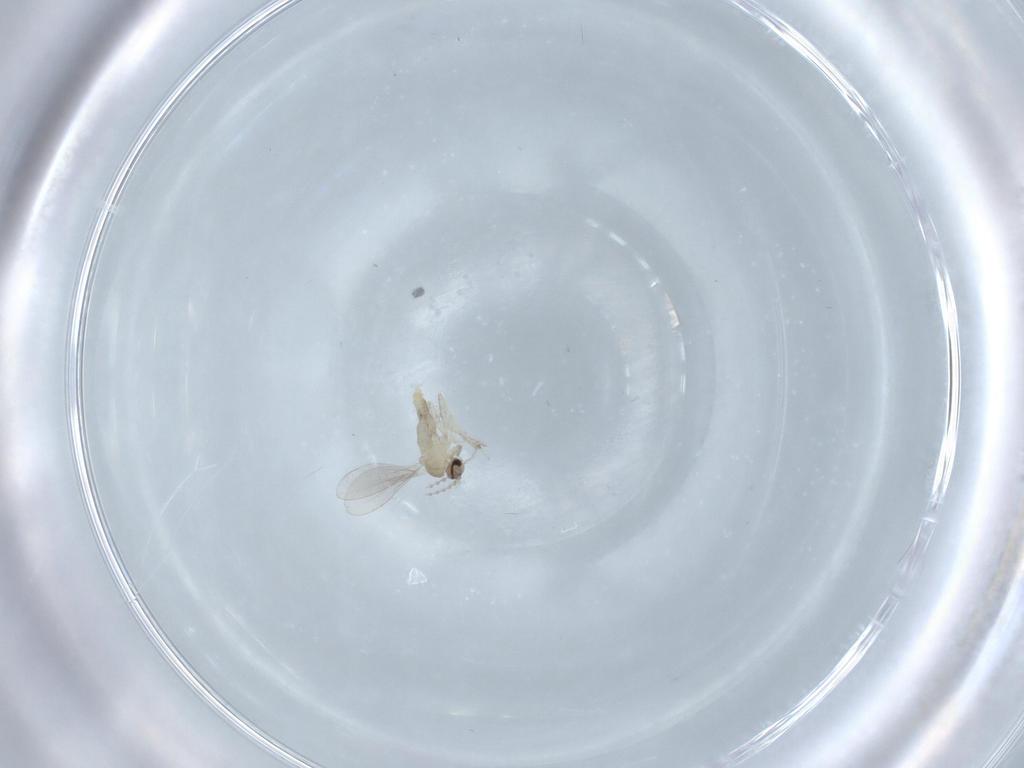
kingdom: Animalia
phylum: Arthropoda
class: Insecta
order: Diptera
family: Cecidomyiidae
